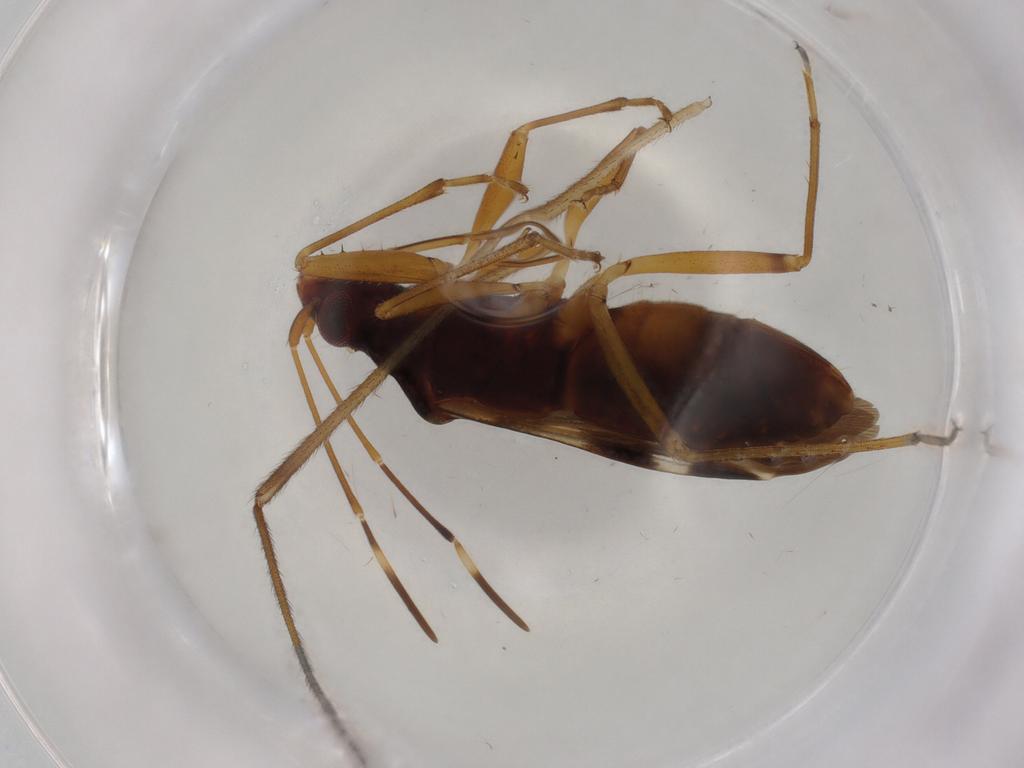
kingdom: Animalia
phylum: Arthropoda
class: Insecta
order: Hemiptera
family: Rhyparochromidae
